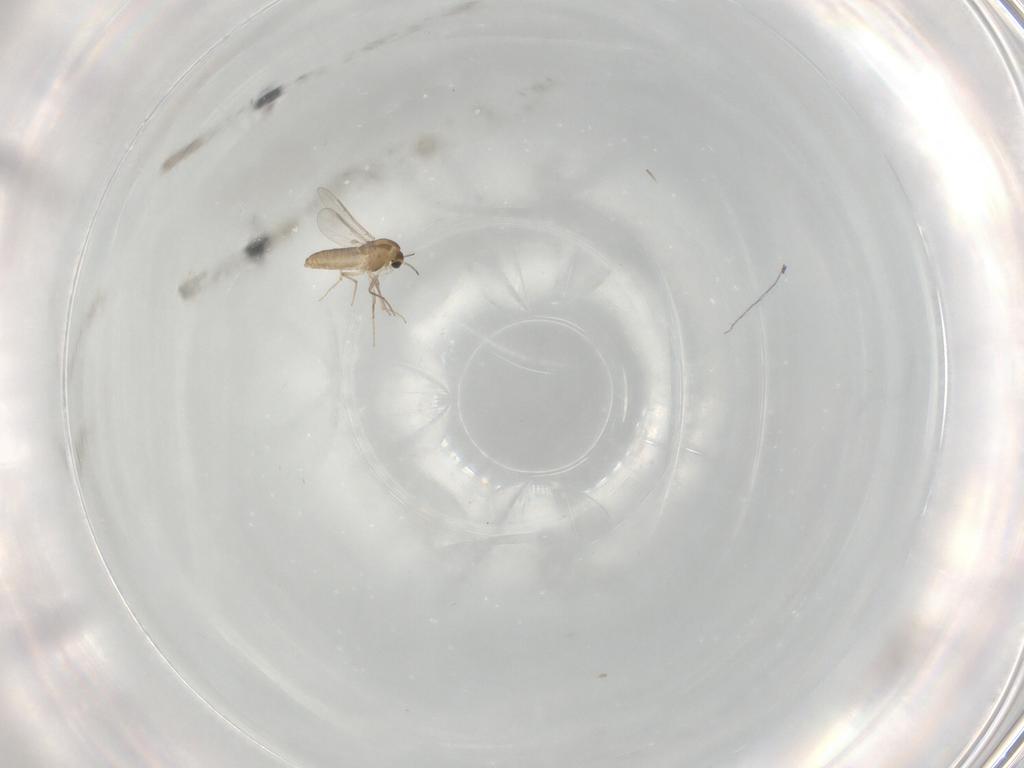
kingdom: Animalia
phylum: Arthropoda
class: Insecta
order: Diptera
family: Chironomidae
